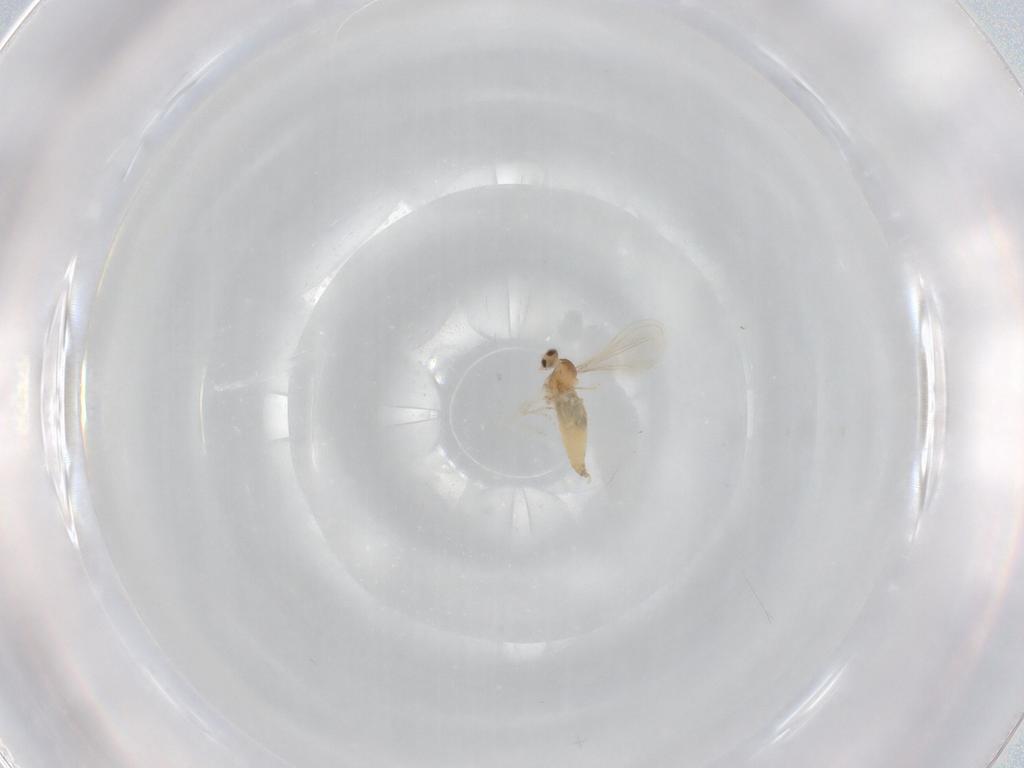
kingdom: Animalia
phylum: Arthropoda
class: Insecta
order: Diptera
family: Cecidomyiidae
